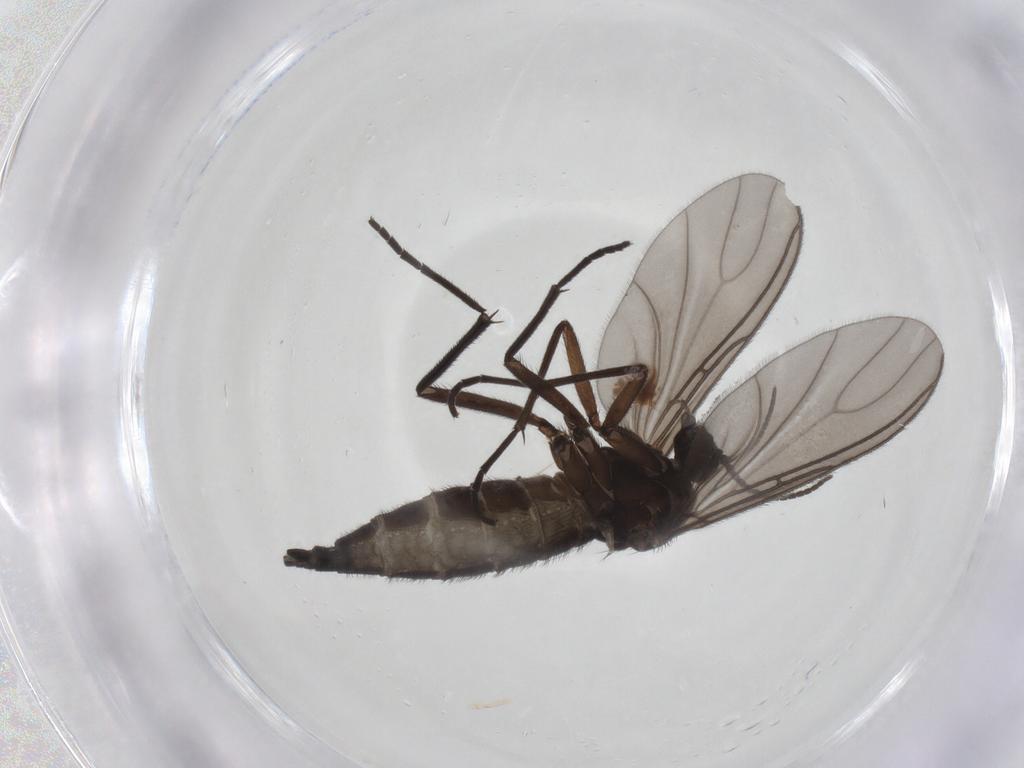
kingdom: Animalia
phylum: Arthropoda
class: Insecta
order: Diptera
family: Sciaridae
